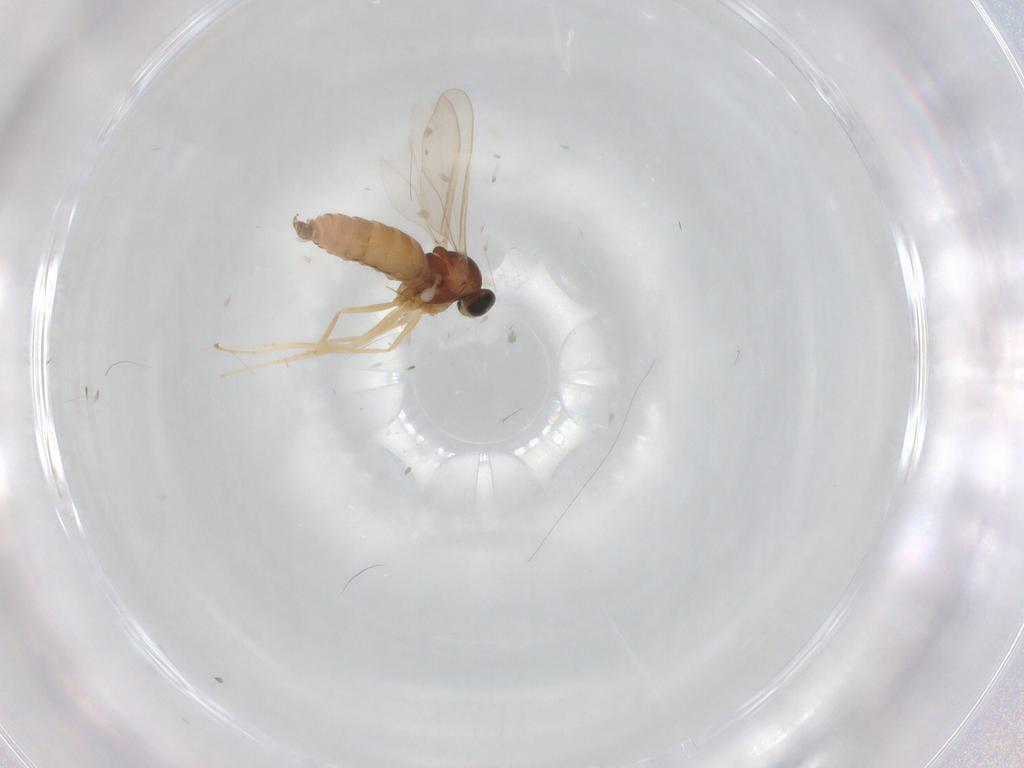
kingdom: Animalia
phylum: Arthropoda
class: Insecta
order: Diptera
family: Cecidomyiidae
